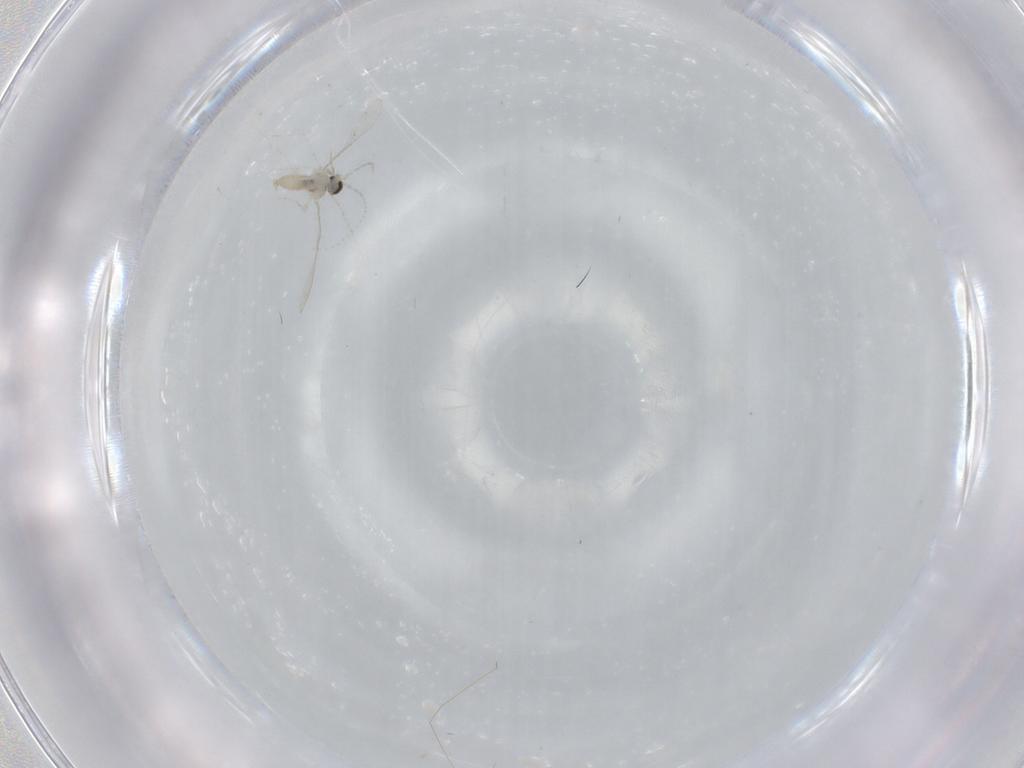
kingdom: Animalia
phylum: Arthropoda
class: Insecta
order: Diptera
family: Cecidomyiidae
